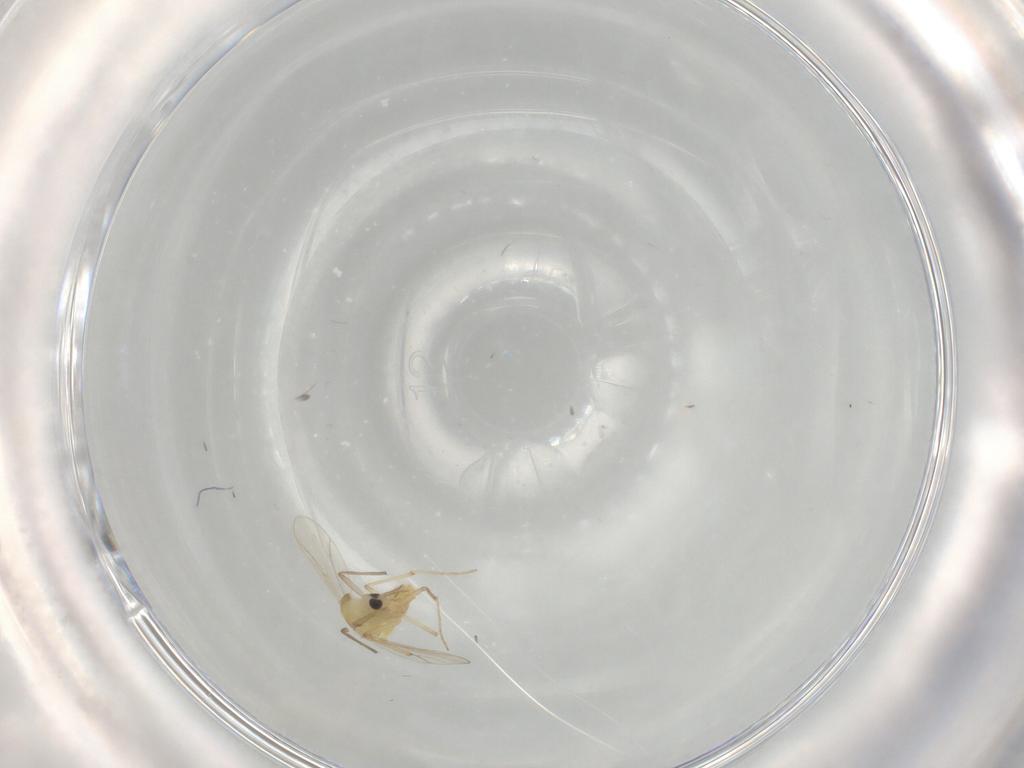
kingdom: Animalia
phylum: Arthropoda
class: Insecta
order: Diptera
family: Chironomidae
